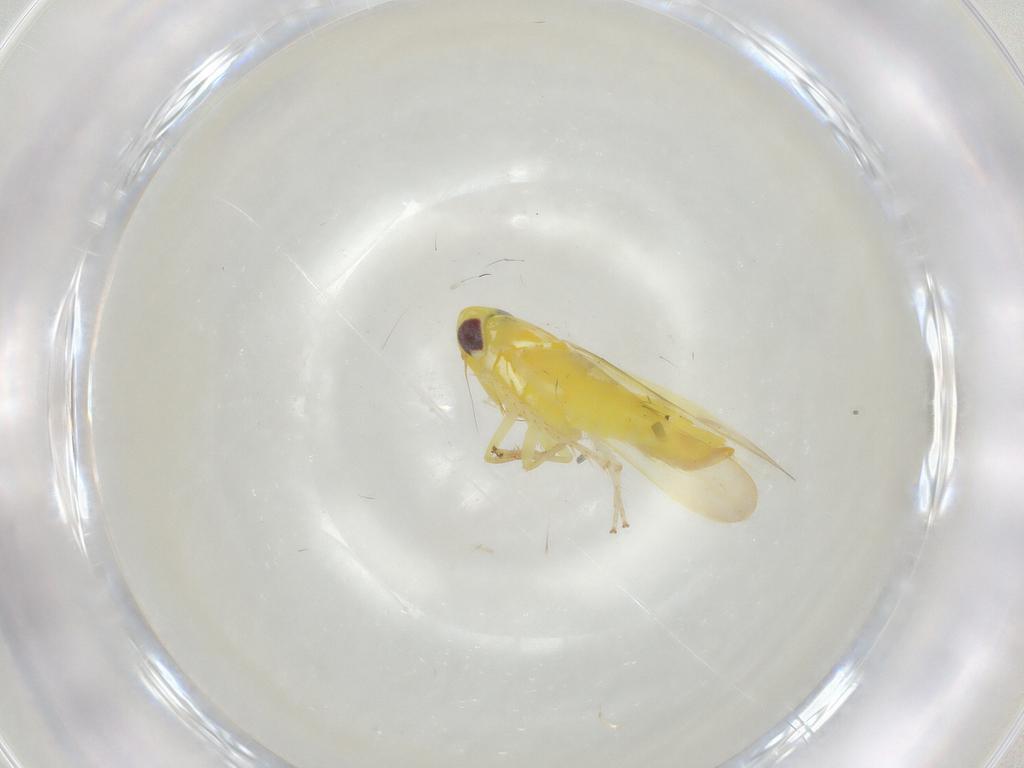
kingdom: Animalia
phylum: Arthropoda
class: Insecta
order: Hemiptera
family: Cicadellidae
